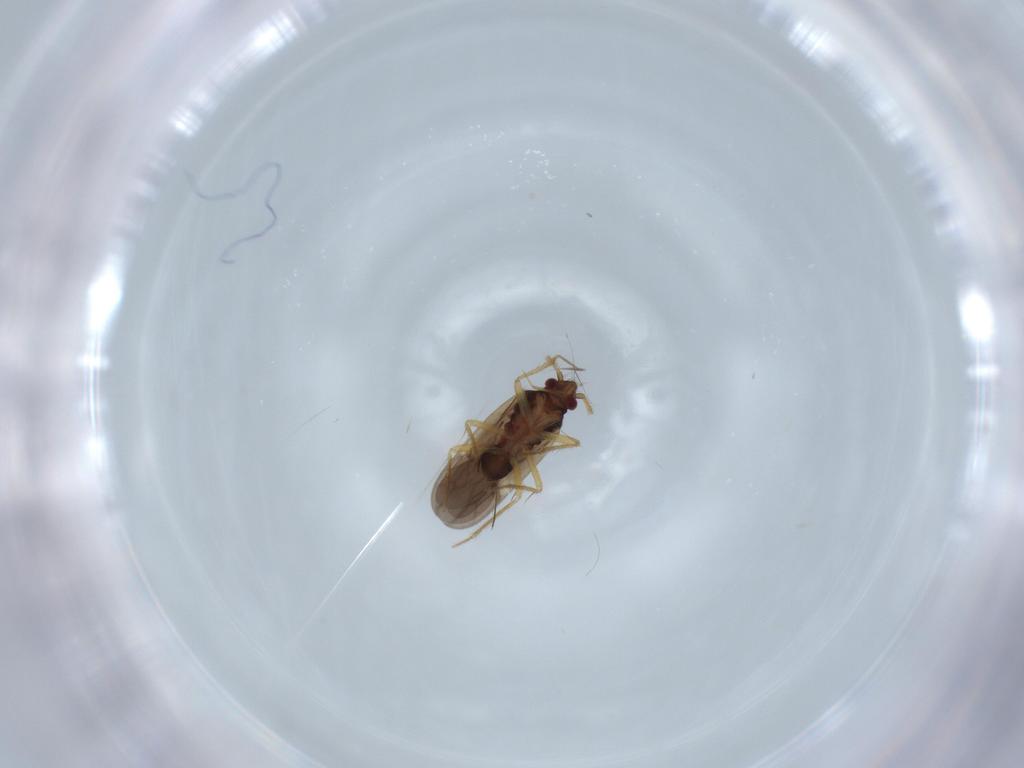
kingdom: Animalia
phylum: Arthropoda
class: Insecta
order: Hemiptera
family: Ceratocombidae
